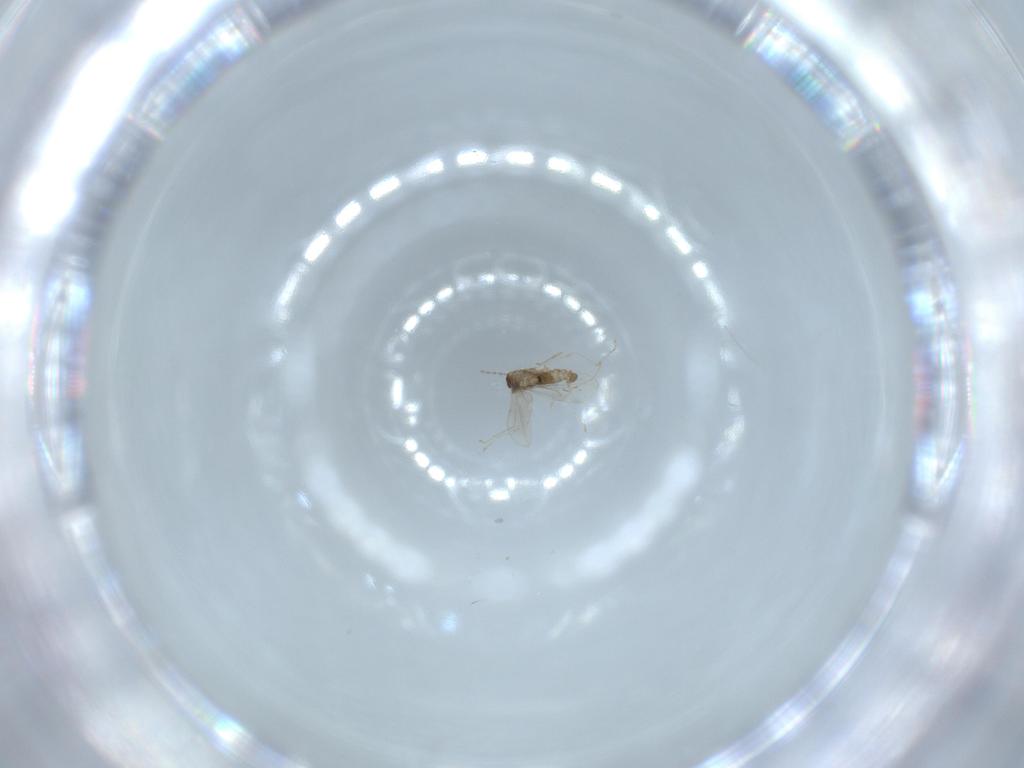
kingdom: Animalia
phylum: Arthropoda
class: Insecta
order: Diptera
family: Cecidomyiidae
